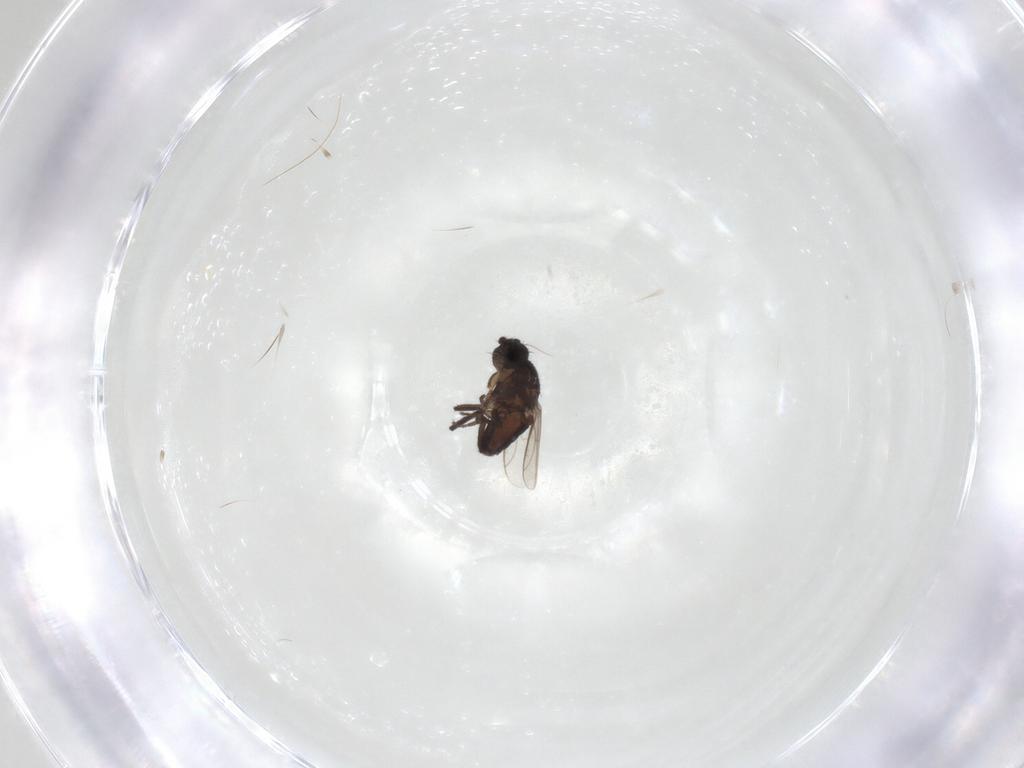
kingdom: Animalia
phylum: Arthropoda
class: Insecta
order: Diptera
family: Sphaeroceridae
